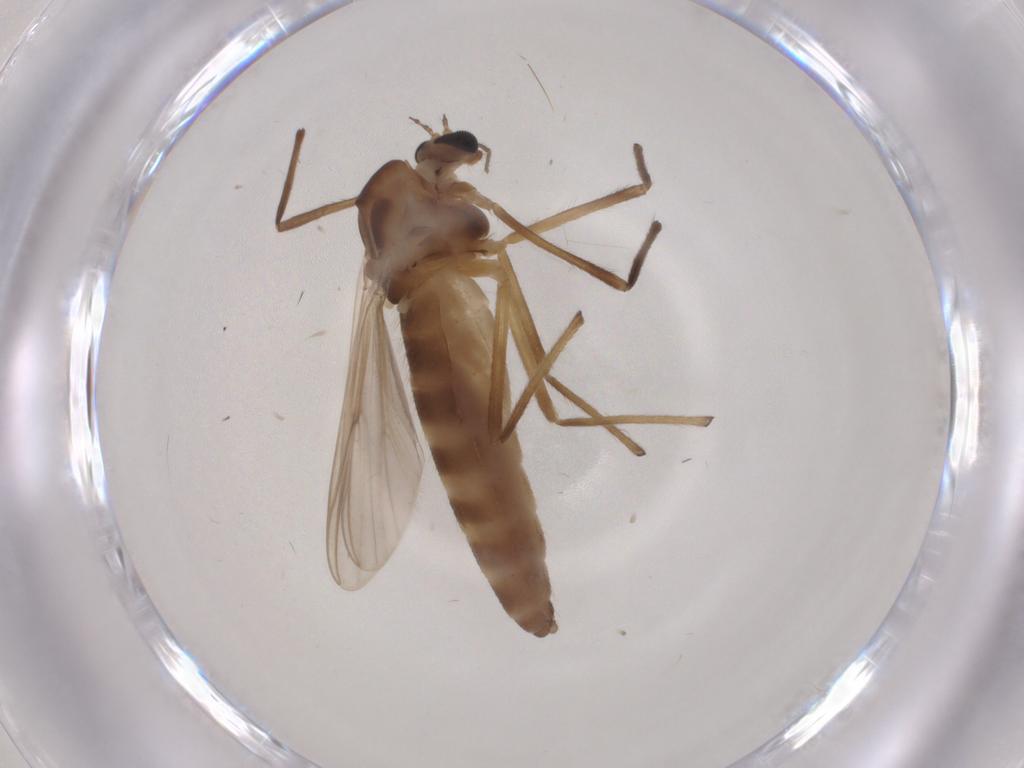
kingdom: Animalia
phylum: Arthropoda
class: Insecta
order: Diptera
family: Chironomidae
